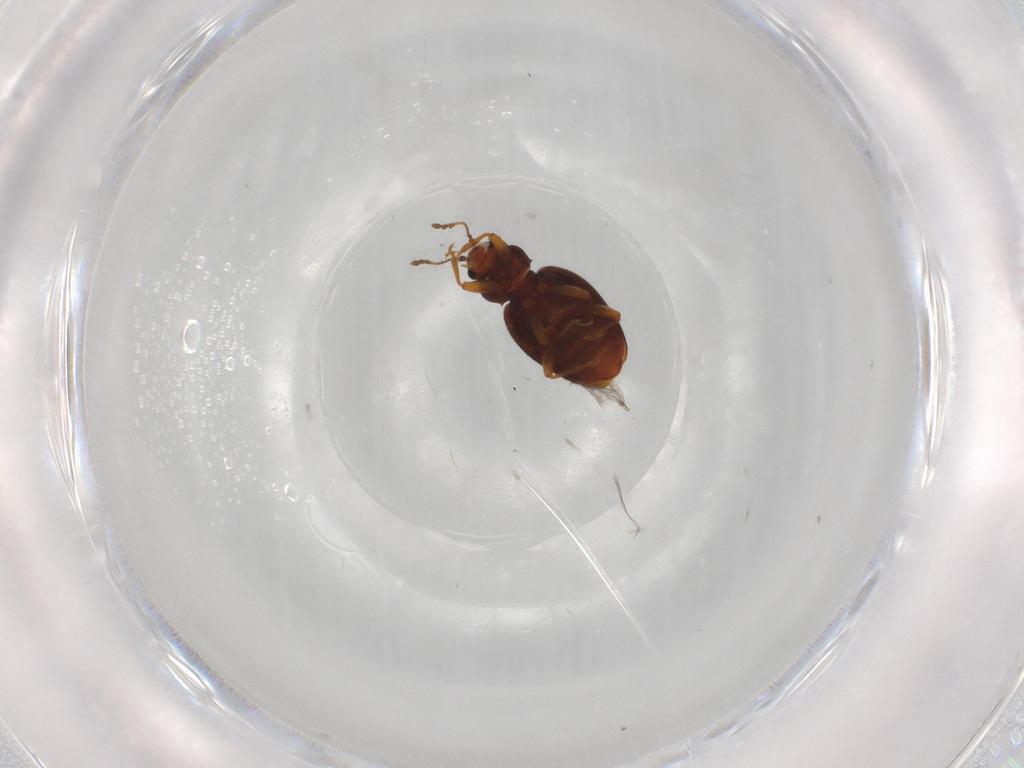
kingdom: Animalia
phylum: Arthropoda
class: Insecta
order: Coleoptera
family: Latridiidae
